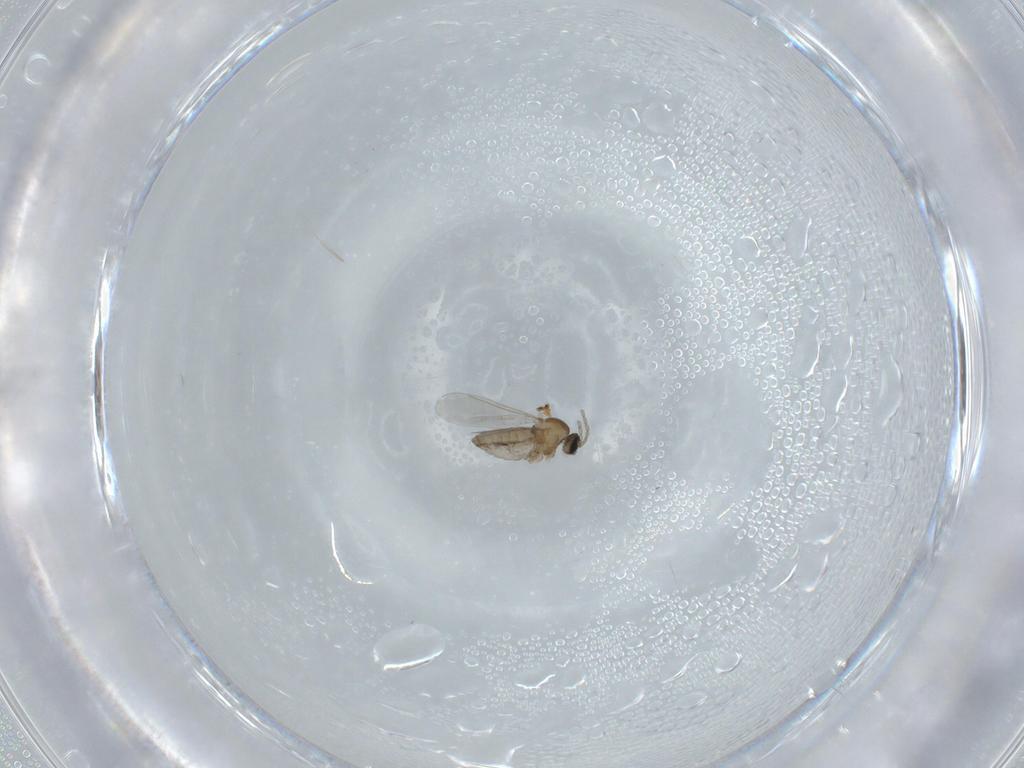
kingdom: Animalia
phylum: Arthropoda
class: Insecta
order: Diptera
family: Cecidomyiidae
